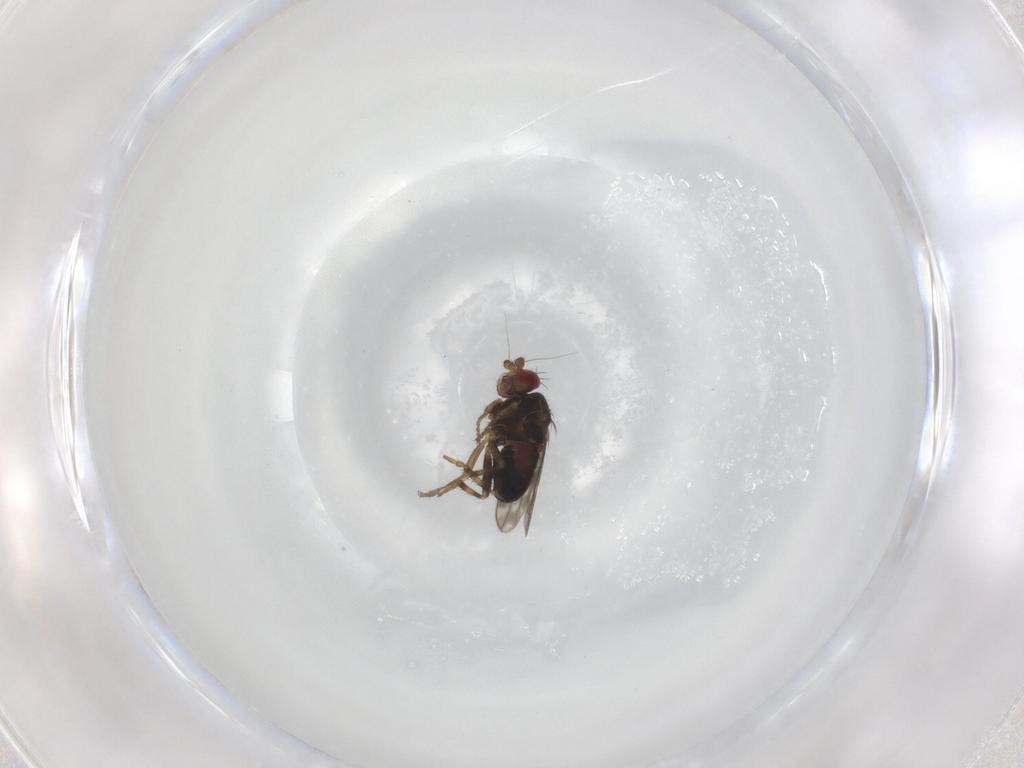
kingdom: Animalia
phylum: Arthropoda
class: Insecta
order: Diptera
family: Sphaeroceridae
